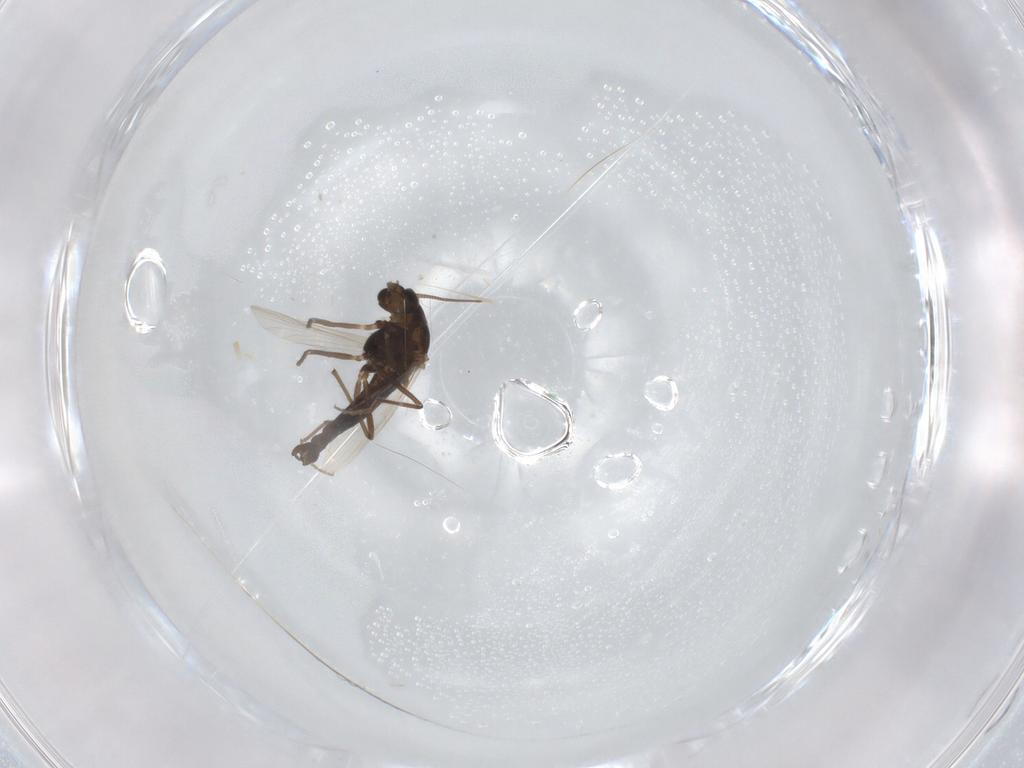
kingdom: Animalia
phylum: Arthropoda
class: Insecta
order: Diptera
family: Chironomidae
